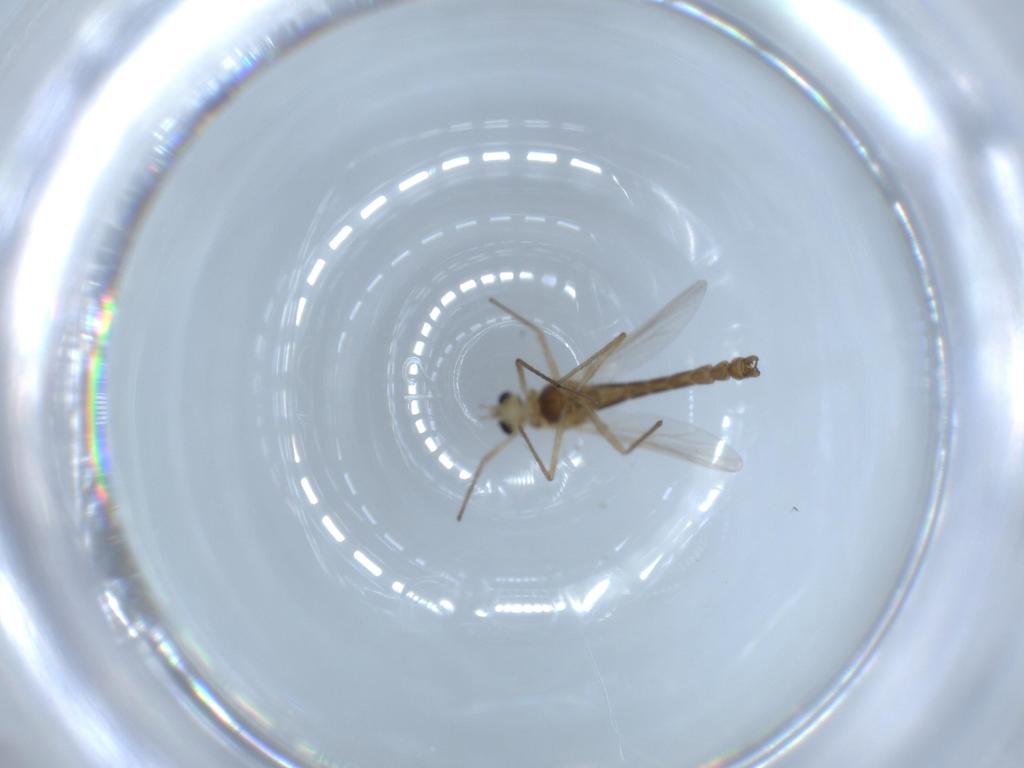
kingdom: Animalia
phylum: Arthropoda
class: Insecta
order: Diptera
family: Chironomidae
